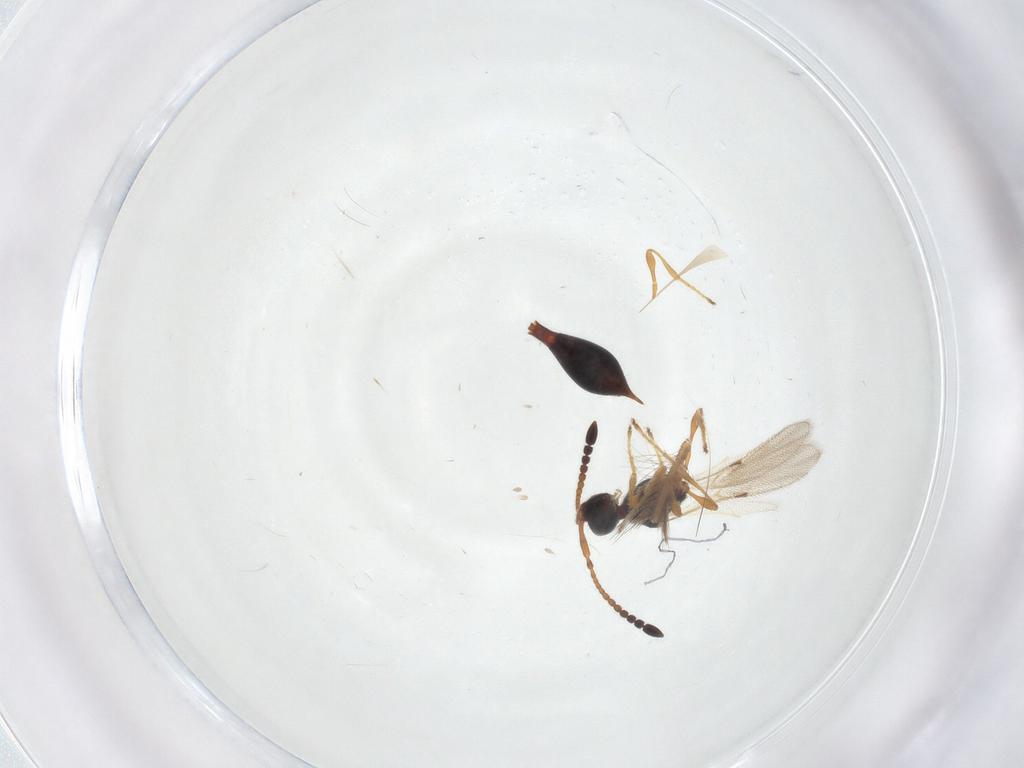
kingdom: Animalia
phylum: Arthropoda
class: Insecta
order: Hymenoptera
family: Diapriidae
